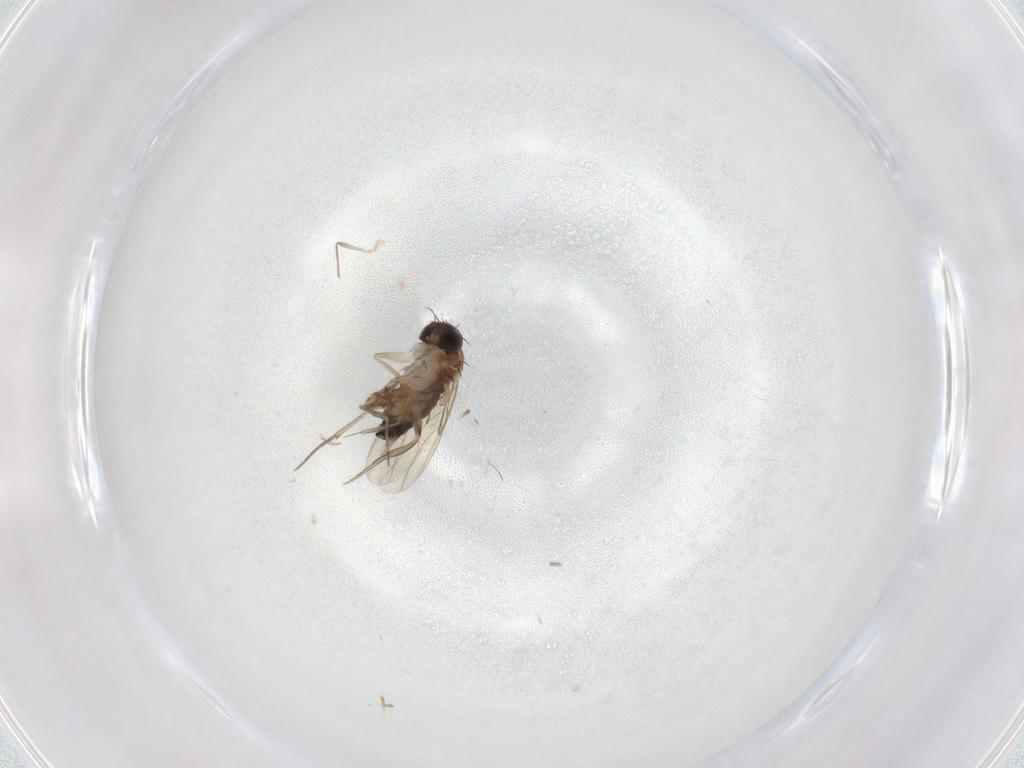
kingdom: Animalia
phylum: Arthropoda
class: Insecta
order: Diptera
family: Phoridae
